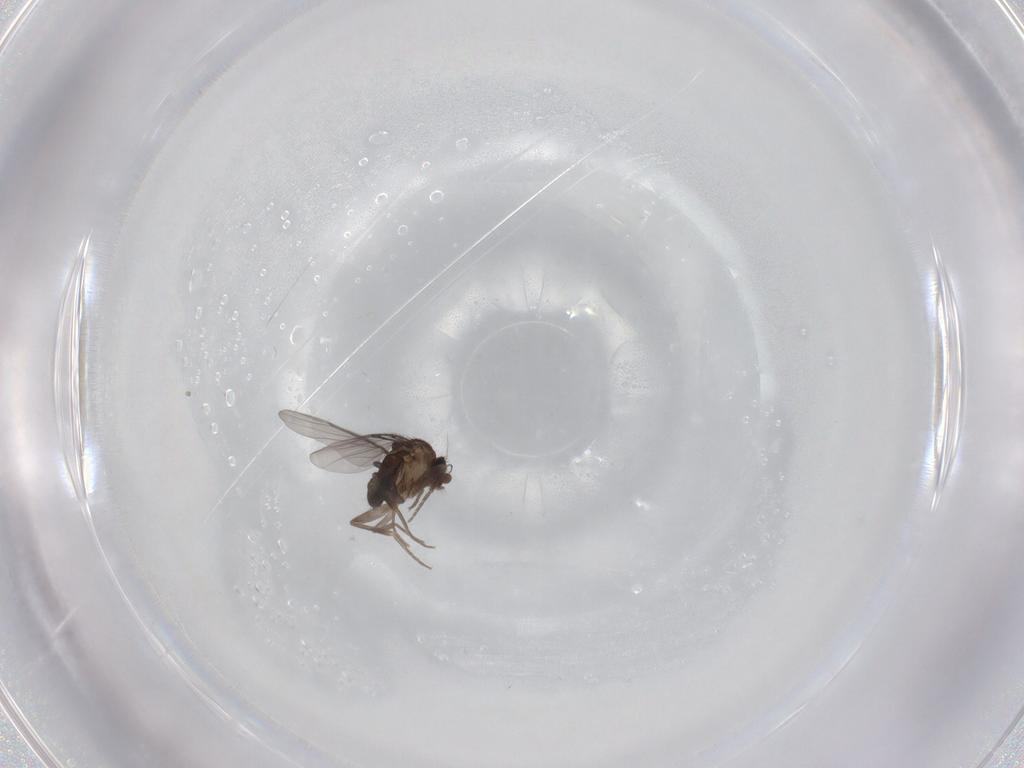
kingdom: Animalia
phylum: Arthropoda
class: Insecta
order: Diptera
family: Phoridae
